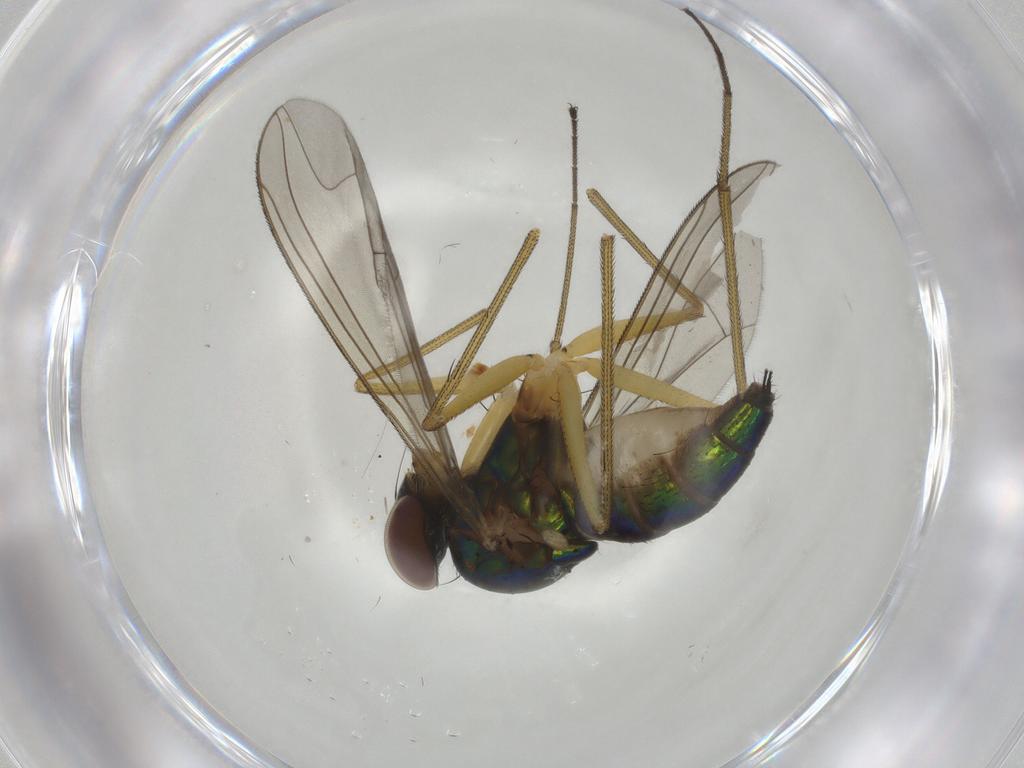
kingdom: Animalia
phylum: Arthropoda
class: Insecta
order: Diptera
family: Dolichopodidae
